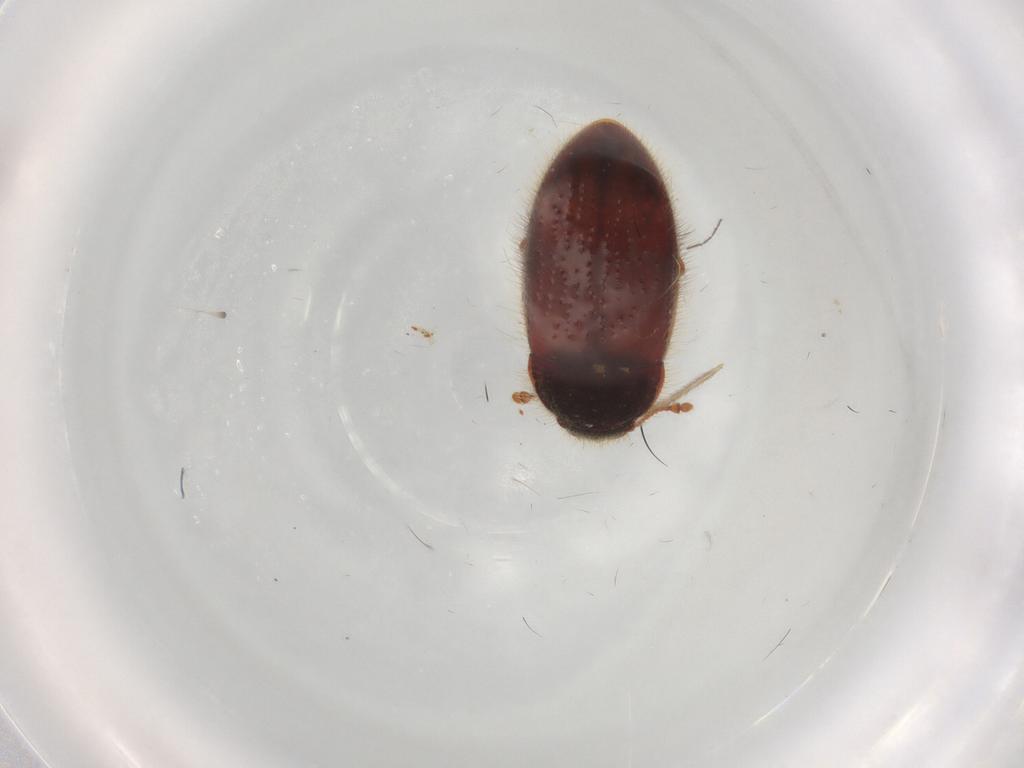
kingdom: Animalia
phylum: Arthropoda
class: Insecta
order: Coleoptera
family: Biphyllidae
